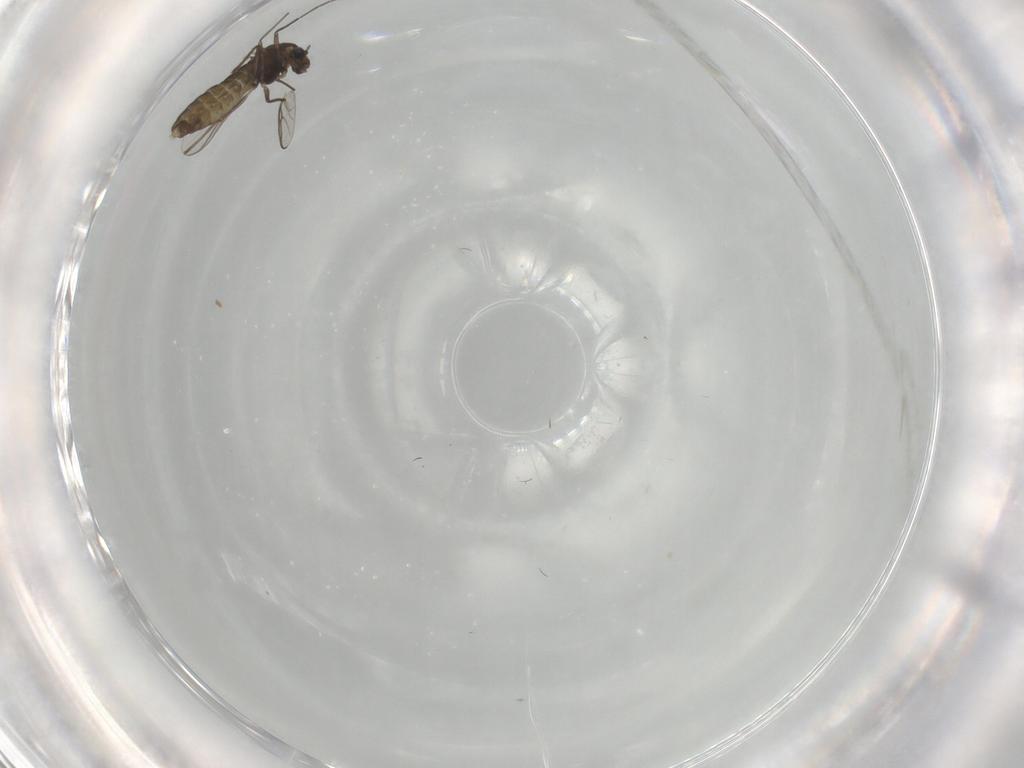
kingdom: Animalia
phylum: Arthropoda
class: Insecta
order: Diptera
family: Chironomidae
